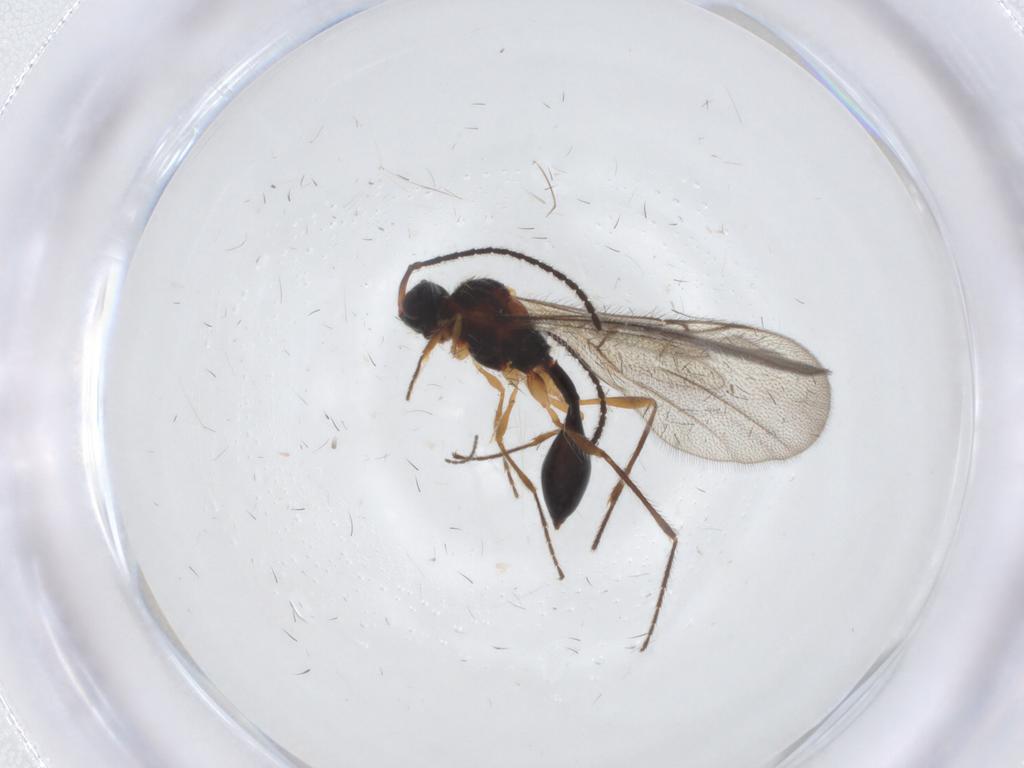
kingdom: Animalia
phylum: Arthropoda
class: Insecta
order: Hymenoptera
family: Diapriidae
